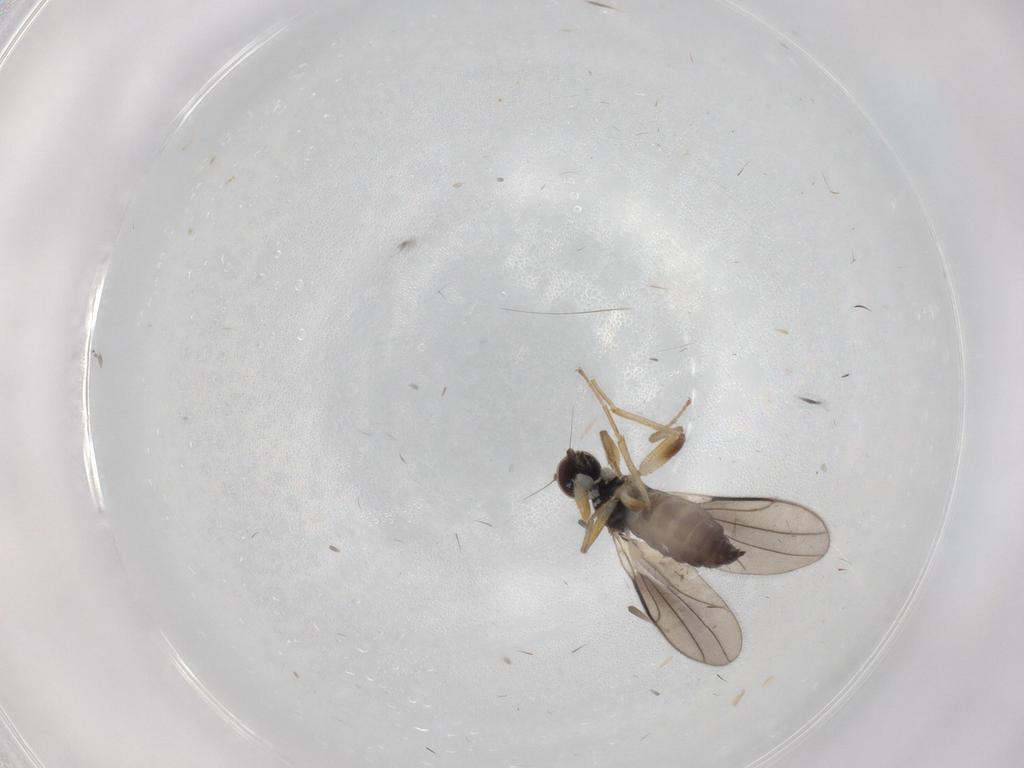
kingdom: Animalia
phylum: Arthropoda
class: Insecta
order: Diptera
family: Hybotidae
